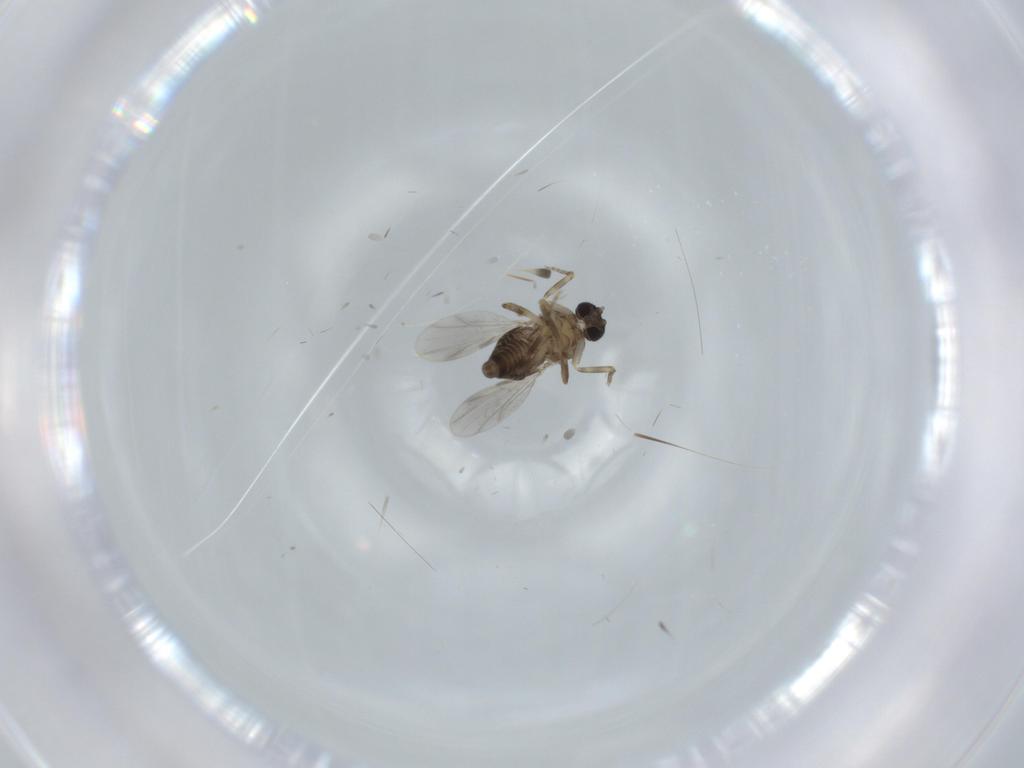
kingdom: Animalia
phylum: Arthropoda
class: Insecta
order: Diptera
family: Ceratopogonidae
